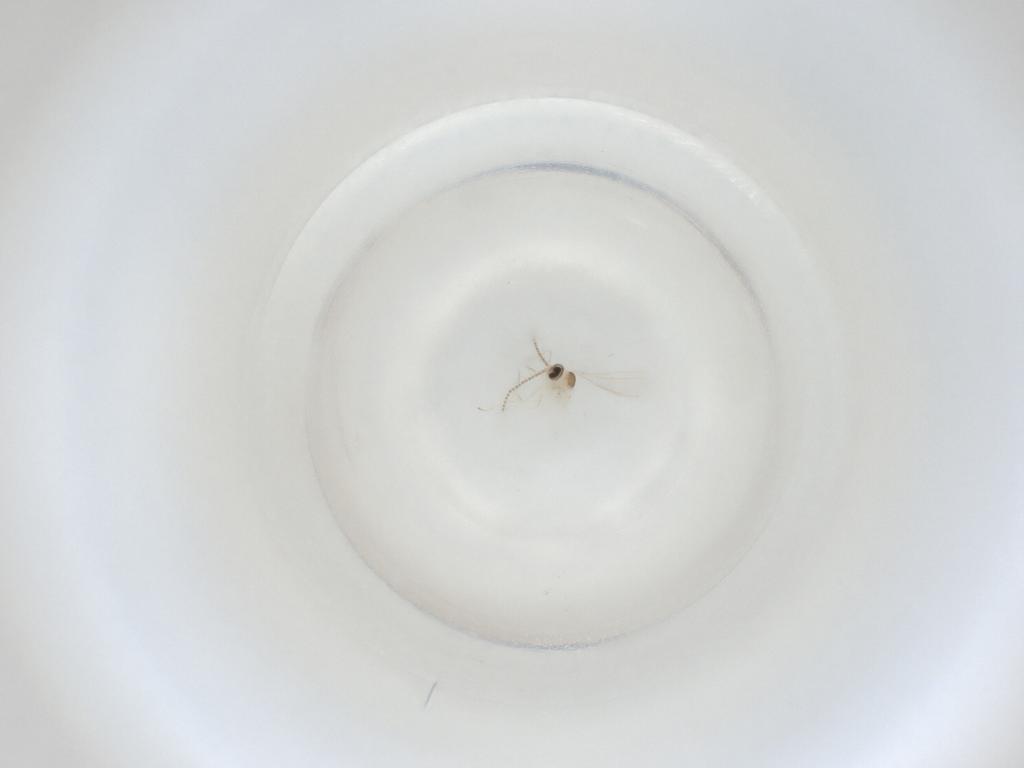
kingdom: Animalia
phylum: Arthropoda
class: Insecta
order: Diptera
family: Cecidomyiidae
